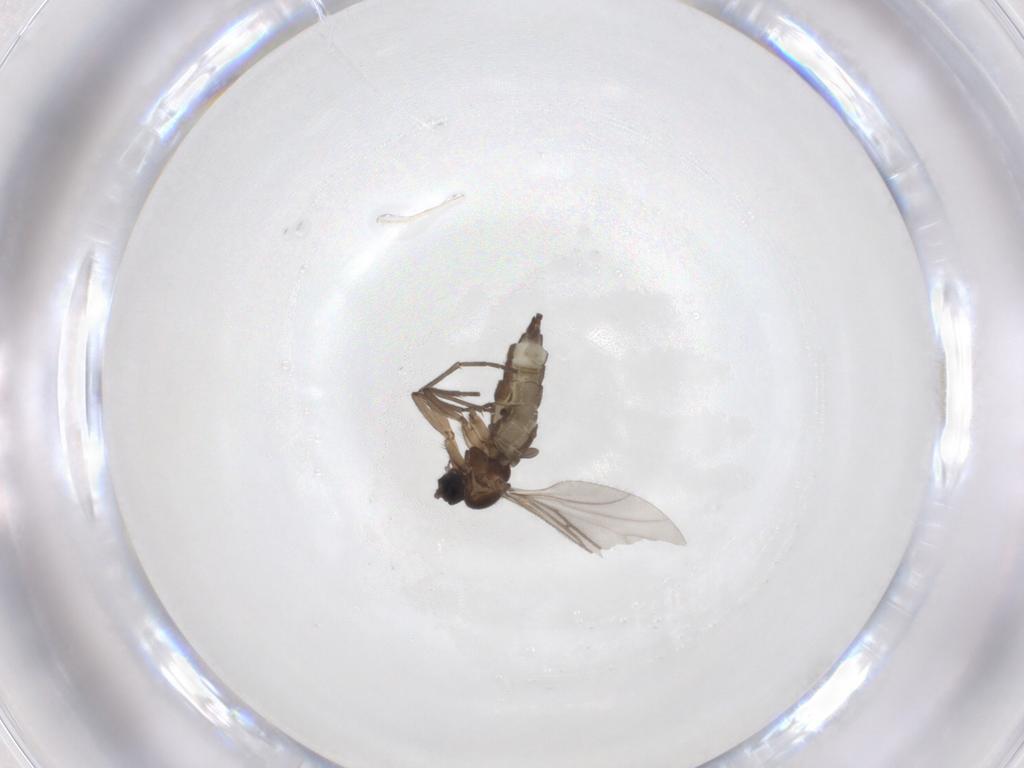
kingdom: Animalia
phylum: Arthropoda
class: Insecta
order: Diptera
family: Sciaridae
